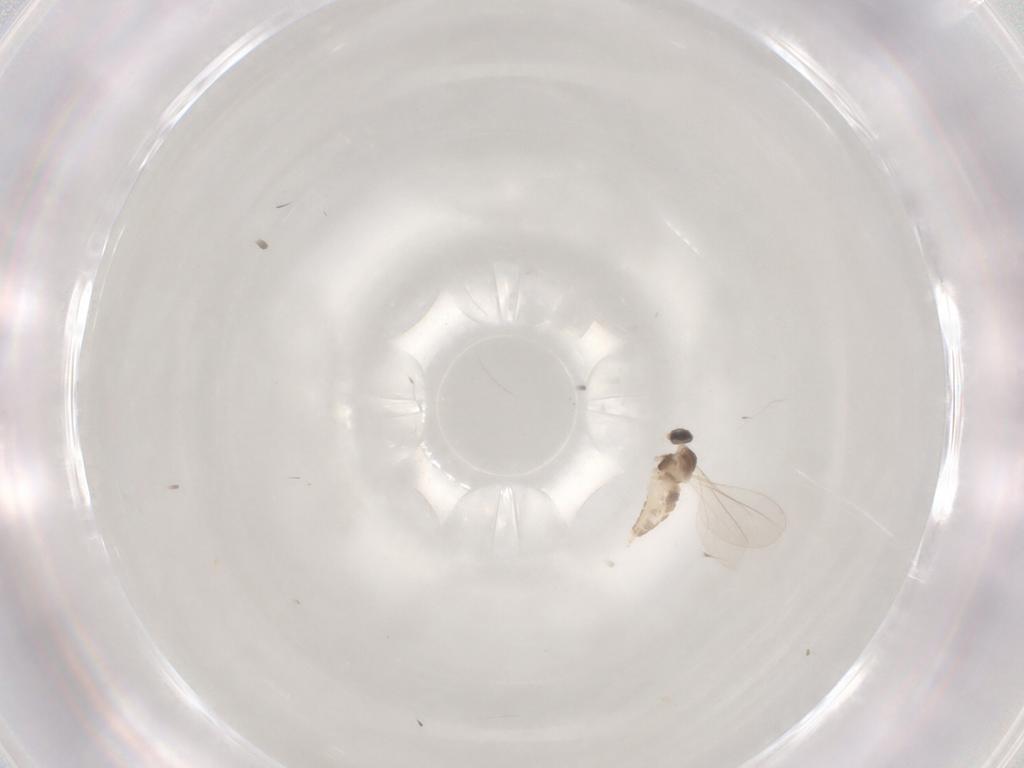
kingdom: Animalia
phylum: Arthropoda
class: Insecta
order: Diptera
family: Cecidomyiidae
